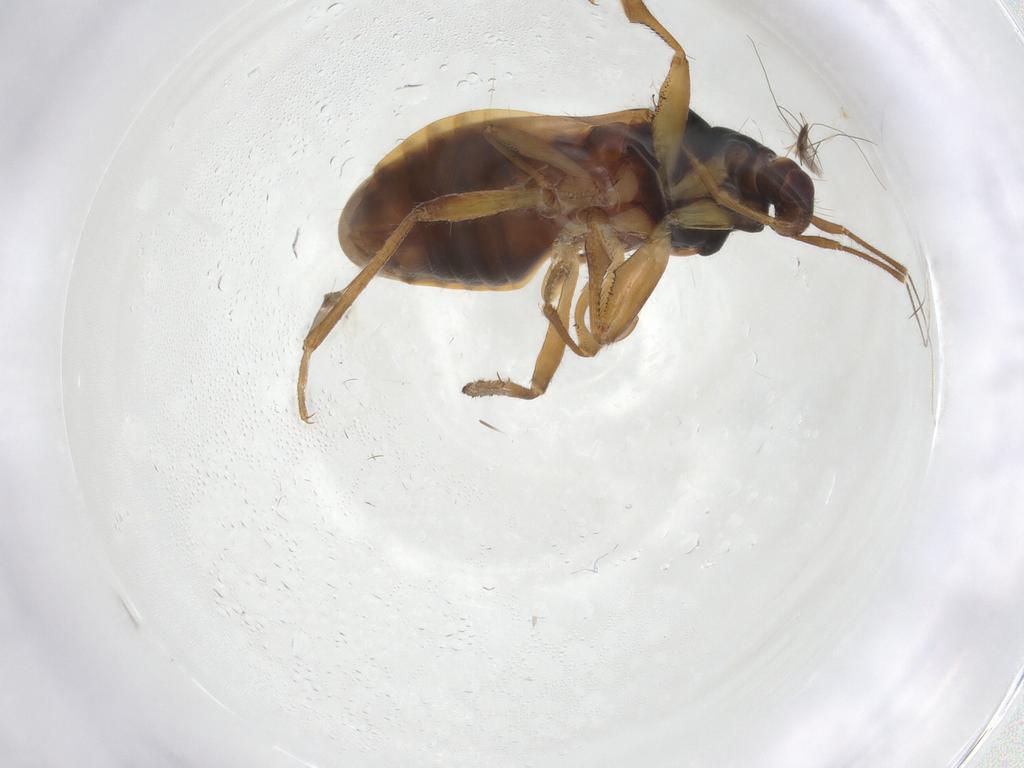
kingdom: Animalia
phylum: Arthropoda
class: Insecta
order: Hemiptera
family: Nabidae
